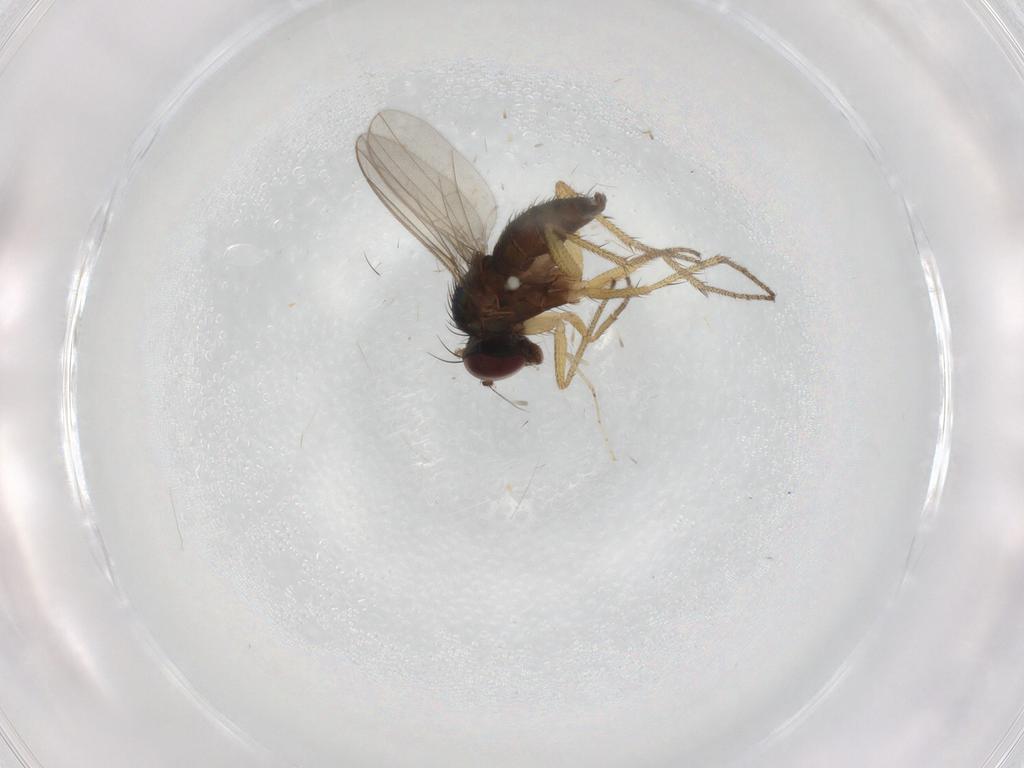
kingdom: Animalia
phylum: Arthropoda
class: Insecta
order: Diptera
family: Dolichopodidae
